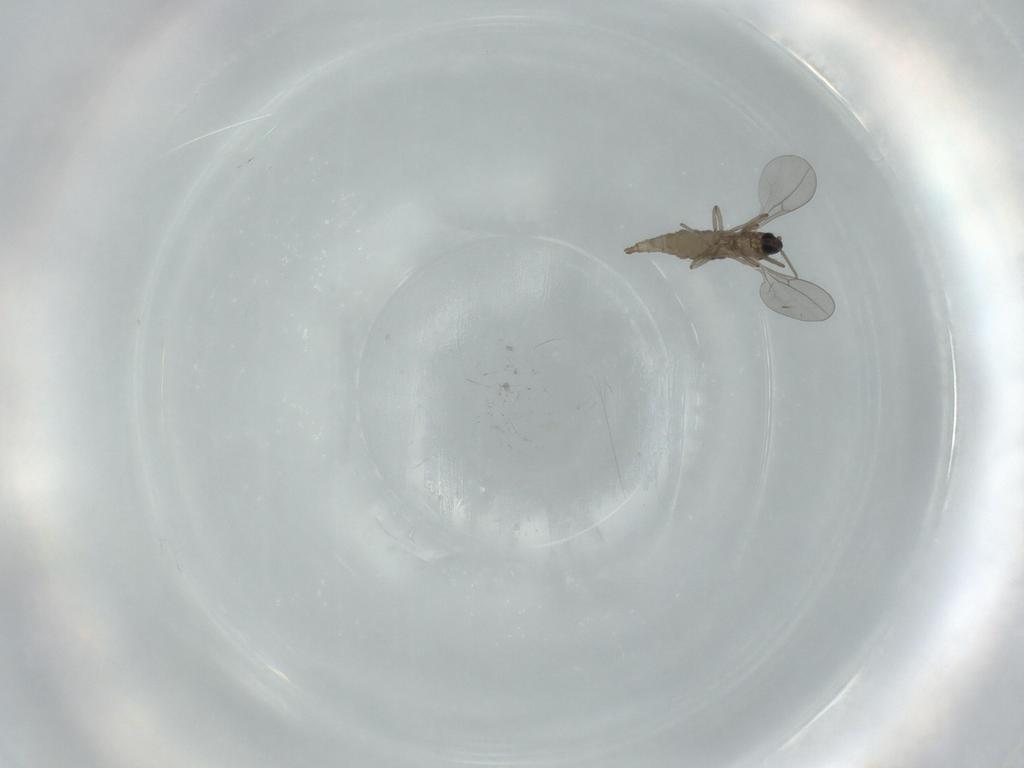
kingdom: Animalia
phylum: Arthropoda
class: Insecta
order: Diptera
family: Cecidomyiidae
